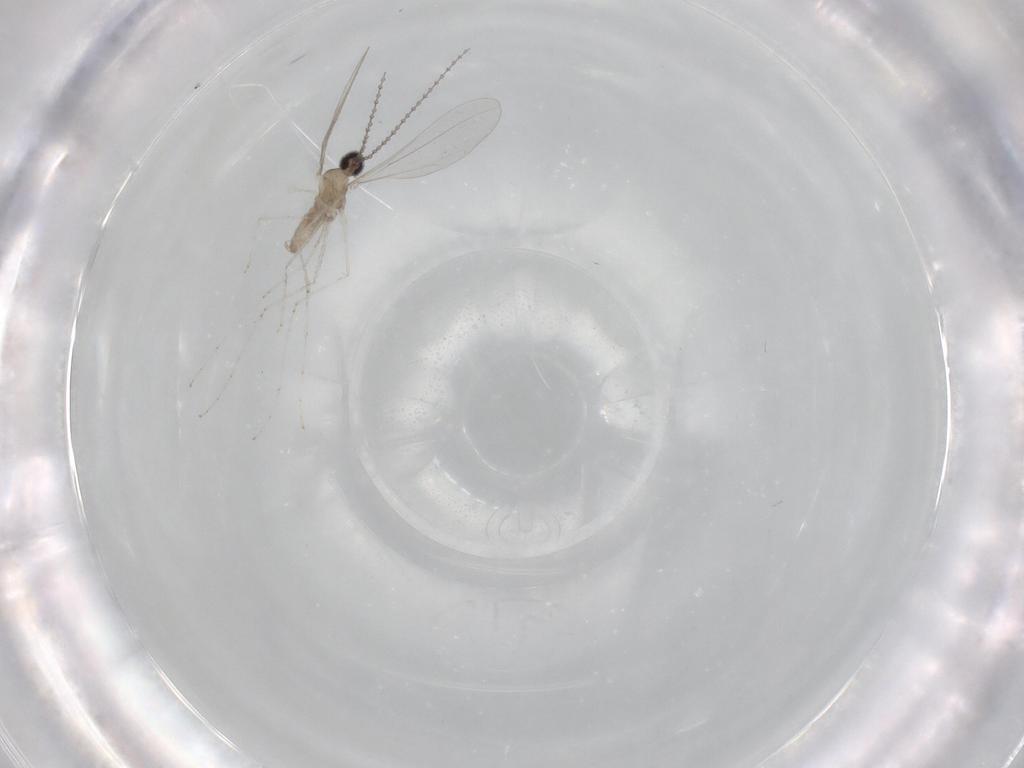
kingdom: Animalia
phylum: Arthropoda
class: Insecta
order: Diptera
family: Cecidomyiidae
